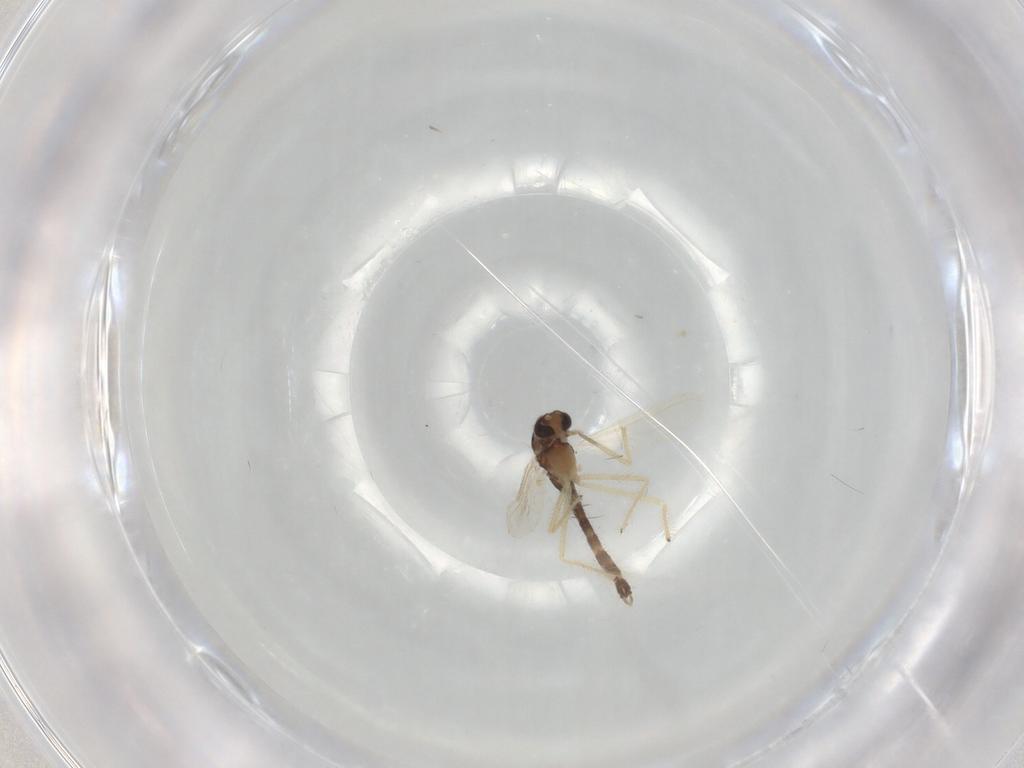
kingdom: Animalia
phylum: Arthropoda
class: Insecta
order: Diptera
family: Chironomidae
